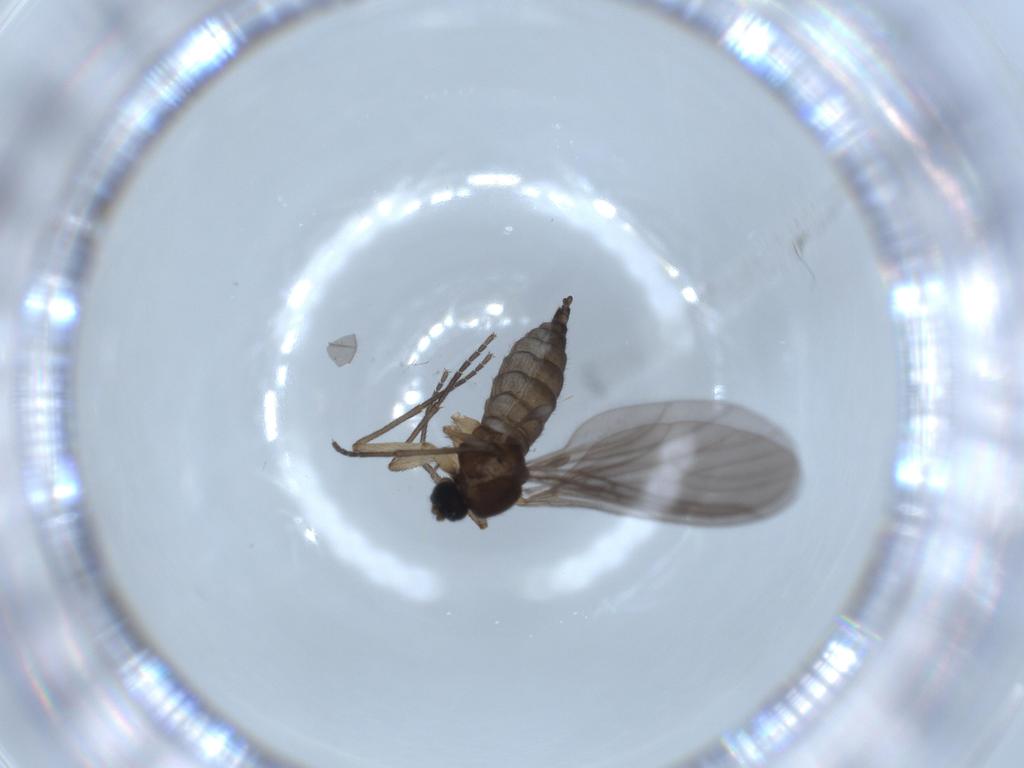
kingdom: Animalia
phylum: Arthropoda
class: Insecta
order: Diptera
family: Sciaridae
